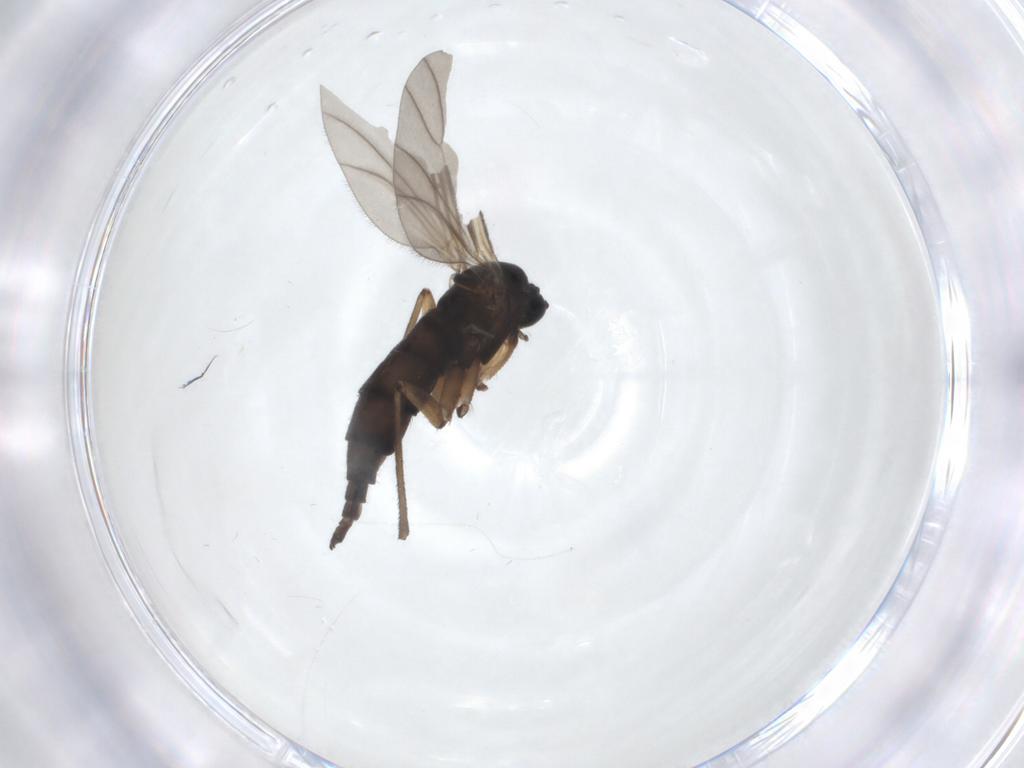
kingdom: Animalia
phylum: Arthropoda
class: Insecta
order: Diptera
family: Sciaridae
